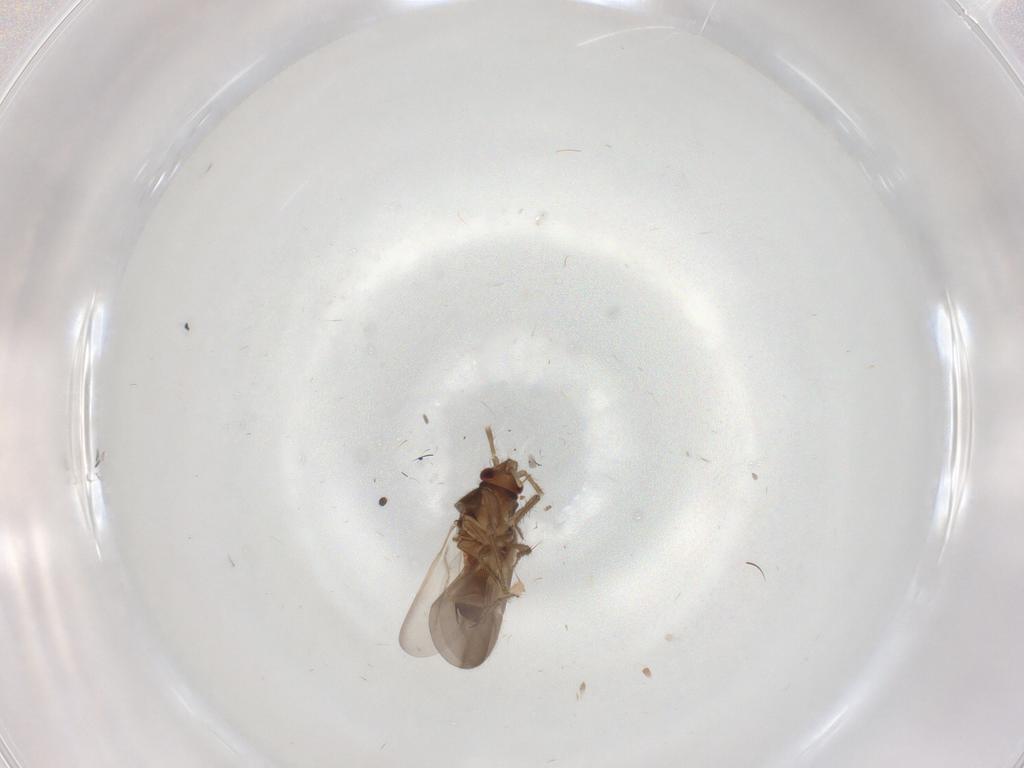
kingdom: Animalia
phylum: Arthropoda
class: Insecta
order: Hemiptera
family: Ceratocombidae
